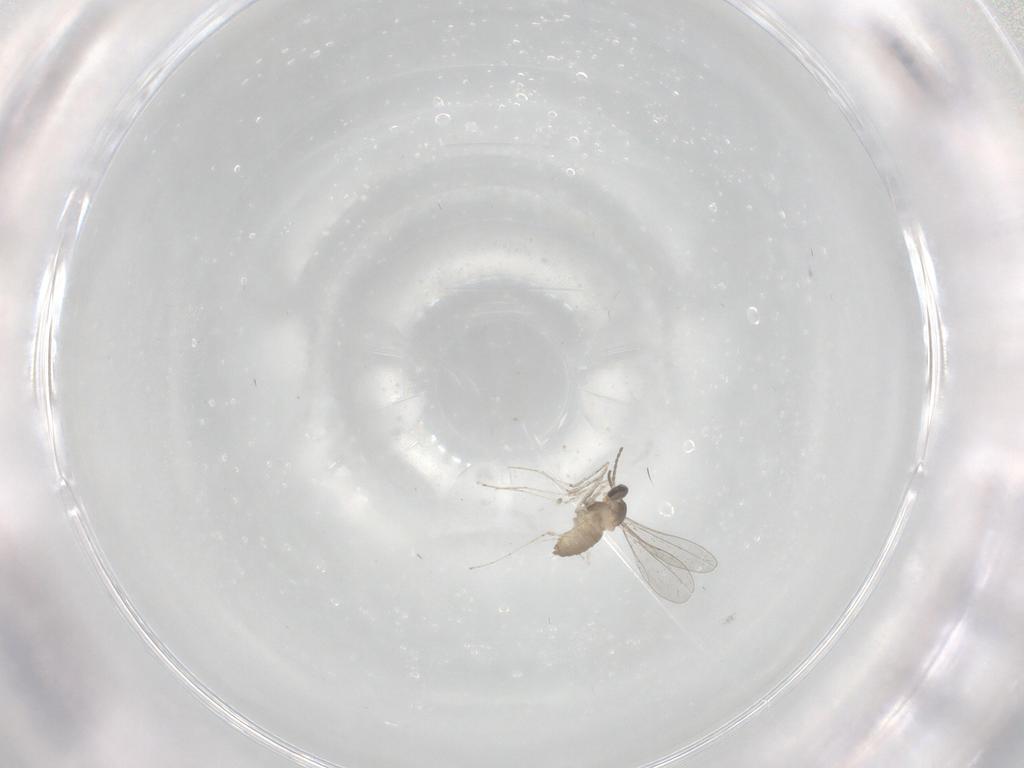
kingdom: Animalia
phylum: Arthropoda
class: Insecta
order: Diptera
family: Cecidomyiidae
